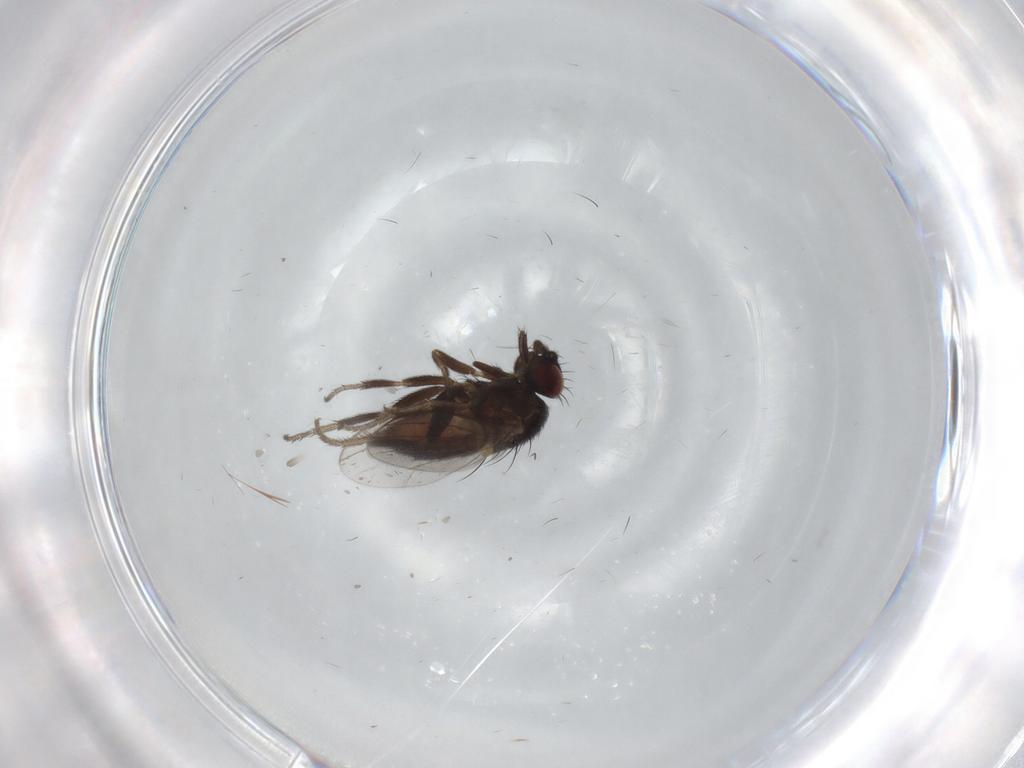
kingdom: Animalia
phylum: Arthropoda
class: Insecta
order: Diptera
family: Milichiidae
